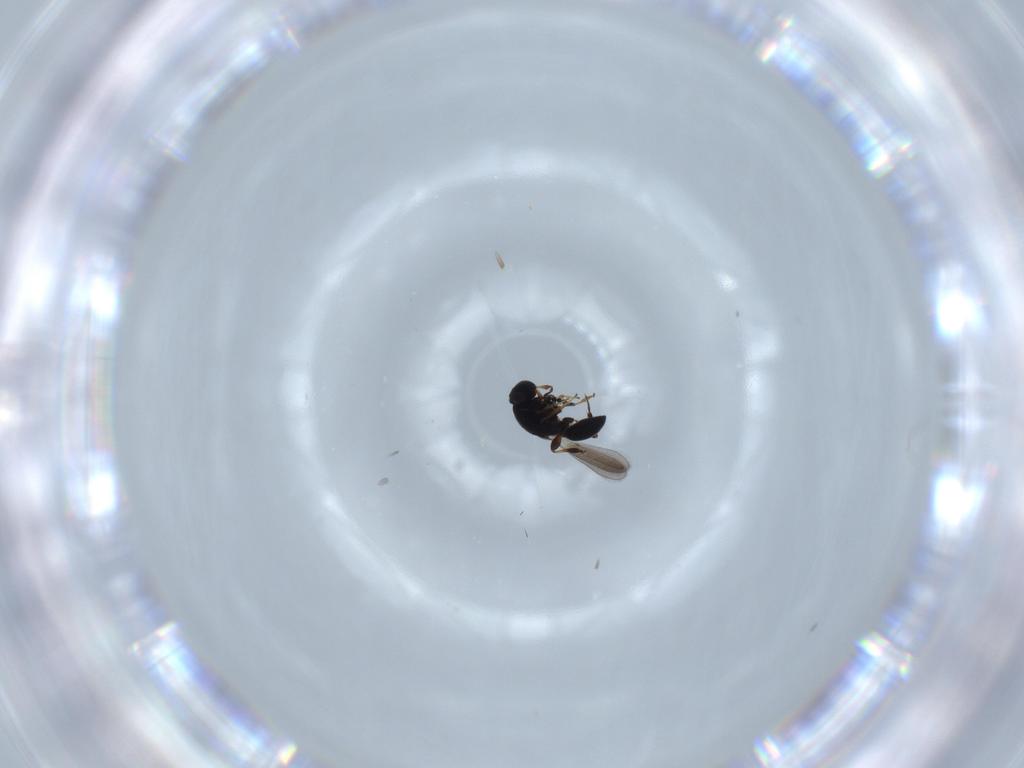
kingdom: Animalia
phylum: Arthropoda
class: Insecta
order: Hymenoptera
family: Platygastridae
